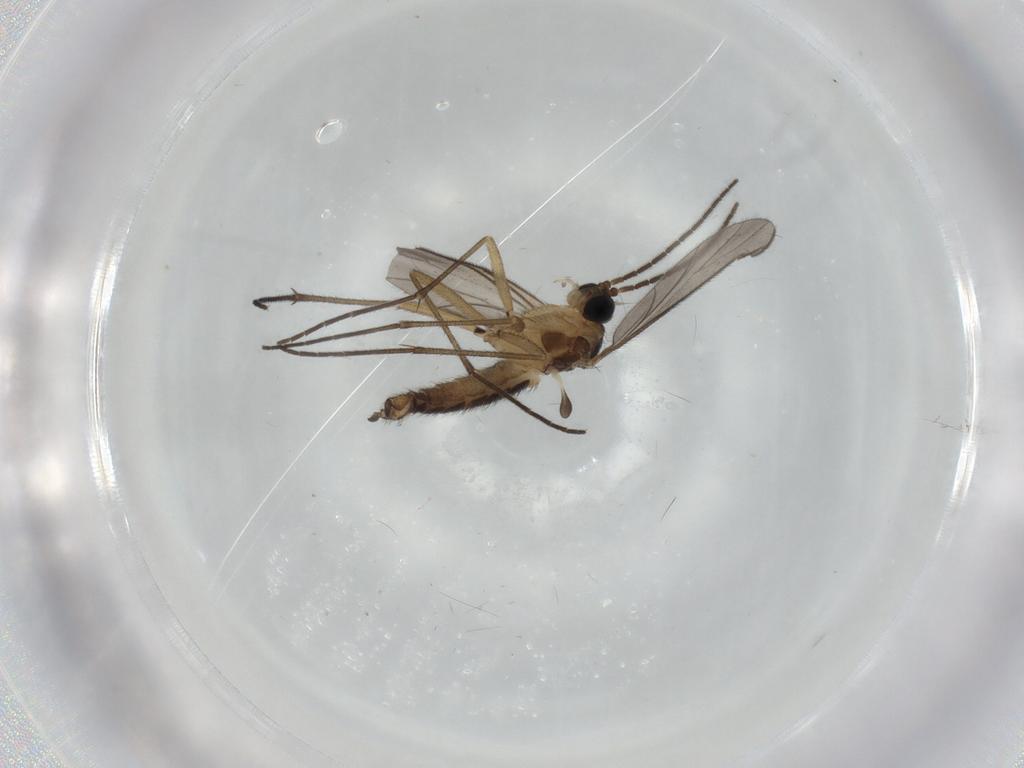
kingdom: Animalia
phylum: Arthropoda
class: Insecta
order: Diptera
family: Sciaridae
